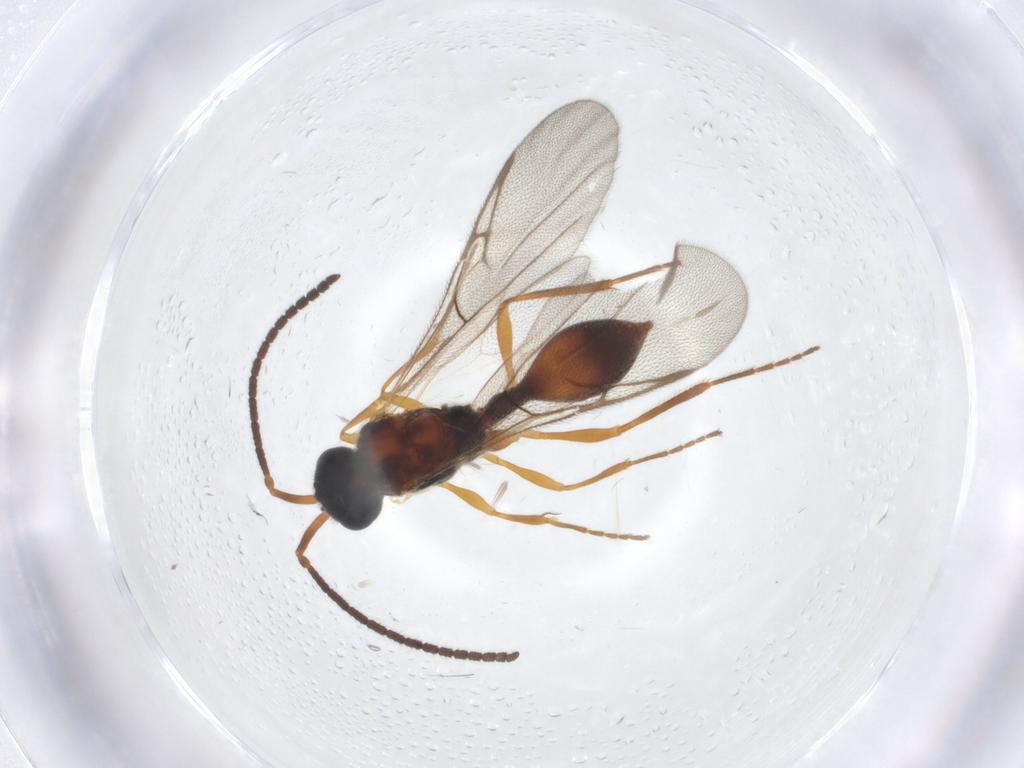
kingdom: Animalia
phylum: Arthropoda
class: Insecta
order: Hymenoptera
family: Diapriidae
